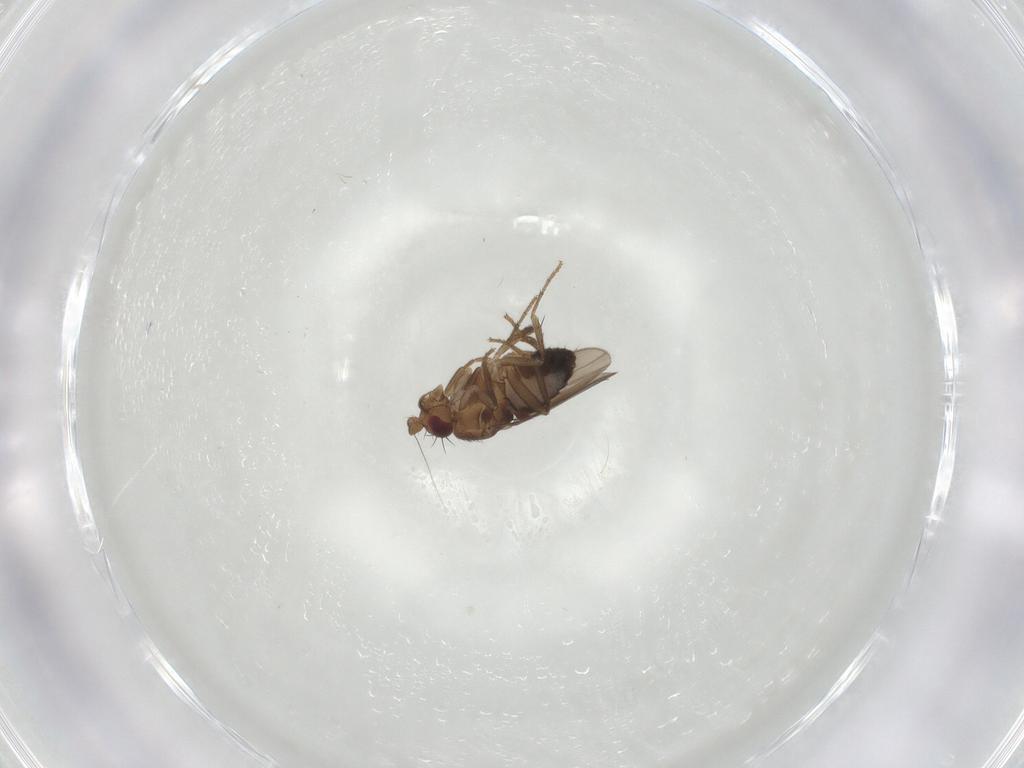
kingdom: Animalia
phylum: Arthropoda
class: Insecta
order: Diptera
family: Sphaeroceridae
